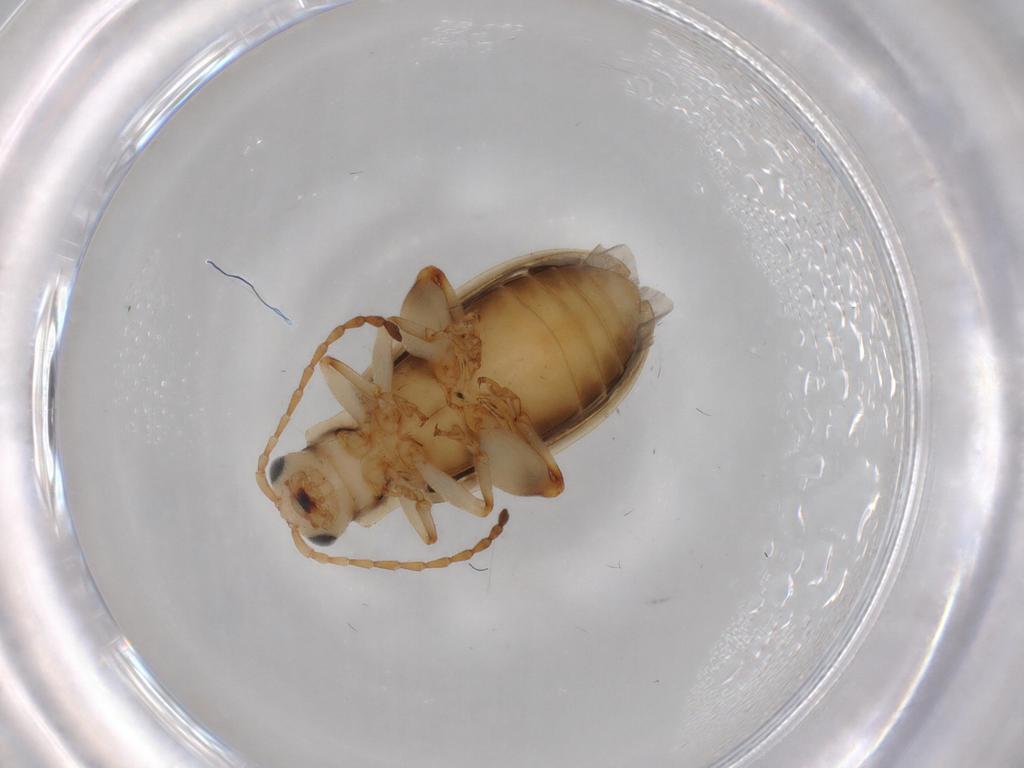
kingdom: Animalia
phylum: Arthropoda
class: Insecta
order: Coleoptera
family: Chrysomelidae
